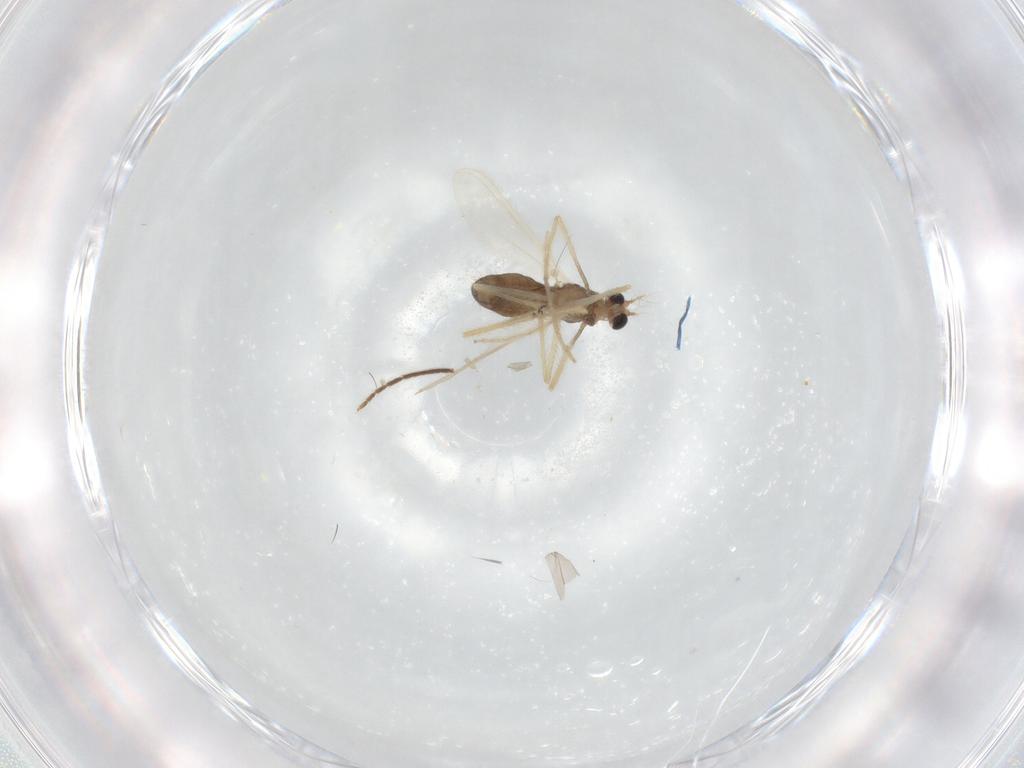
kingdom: Animalia
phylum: Arthropoda
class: Insecta
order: Diptera
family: Chironomidae
